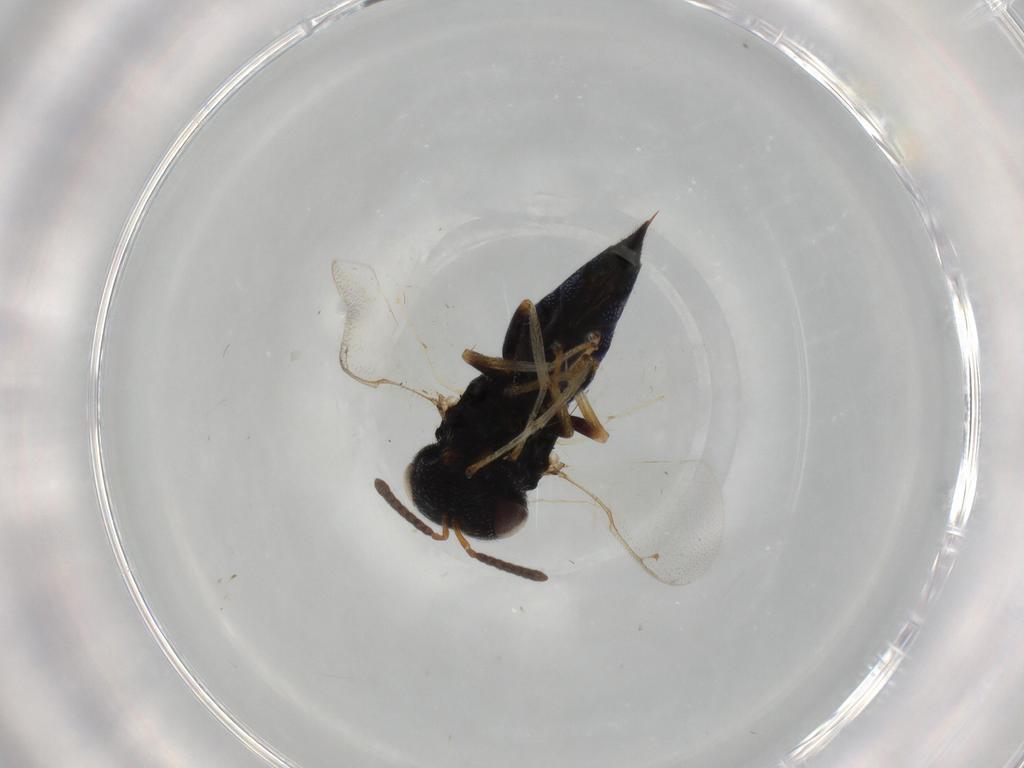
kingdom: Animalia
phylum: Arthropoda
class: Insecta
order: Hymenoptera
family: Pteromalidae
